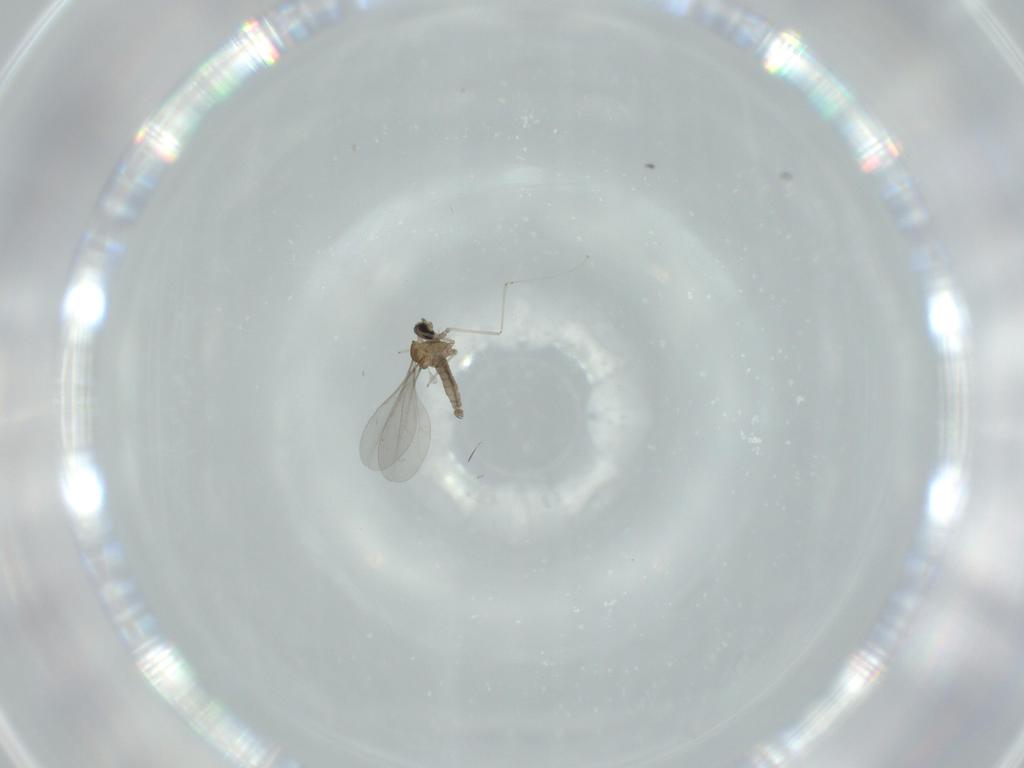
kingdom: Animalia
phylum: Arthropoda
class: Insecta
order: Diptera
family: Cecidomyiidae
